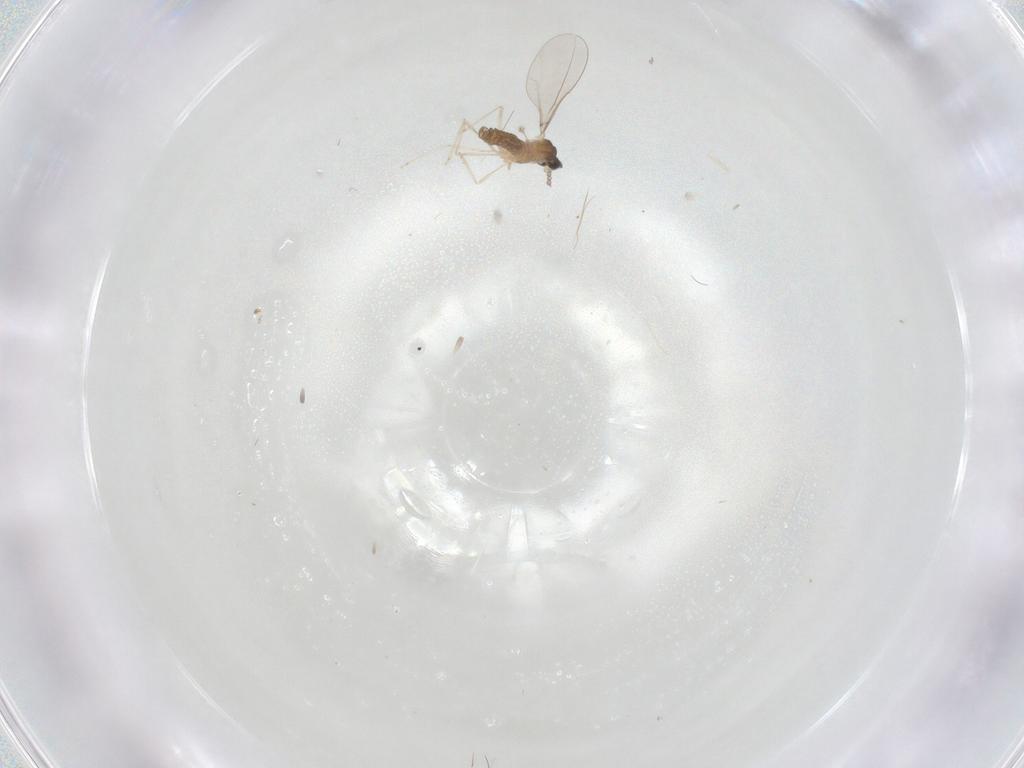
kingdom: Animalia
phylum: Arthropoda
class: Insecta
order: Diptera
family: Cecidomyiidae
